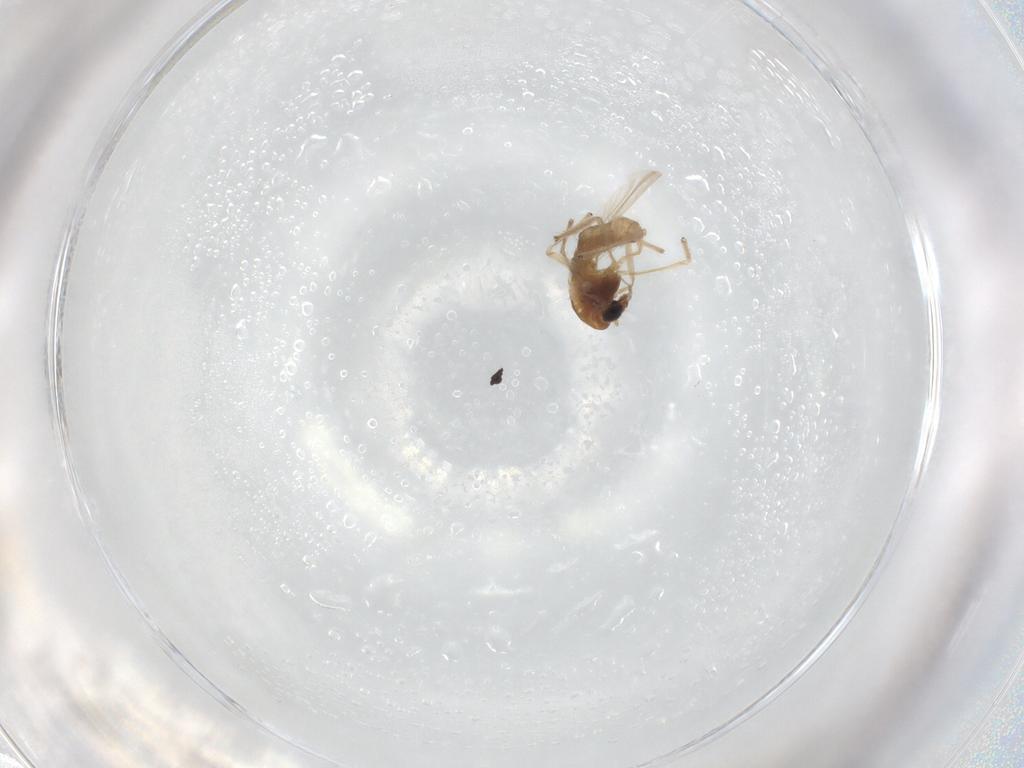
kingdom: Animalia
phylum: Arthropoda
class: Insecta
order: Diptera
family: Chironomidae
